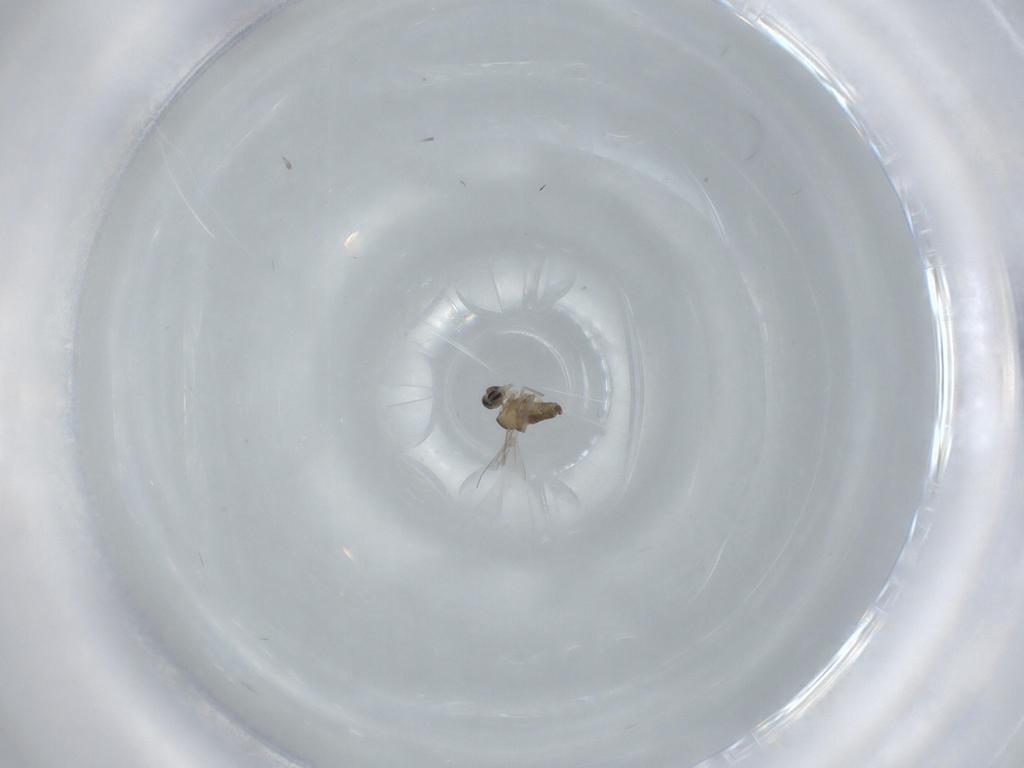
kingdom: Animalia
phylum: Arthropoda
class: Insecta
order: Diptera
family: Cecidomyiidae
